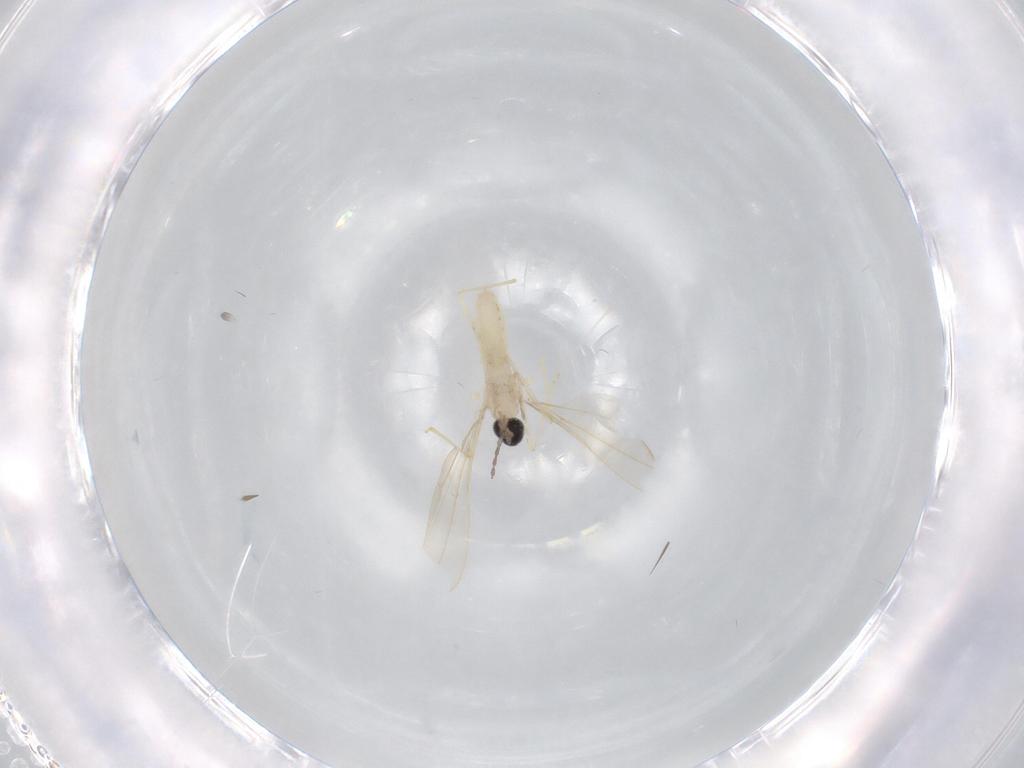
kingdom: Animalia
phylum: Arthropoda
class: Insecta
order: Diptera
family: Cecidomyiidae
